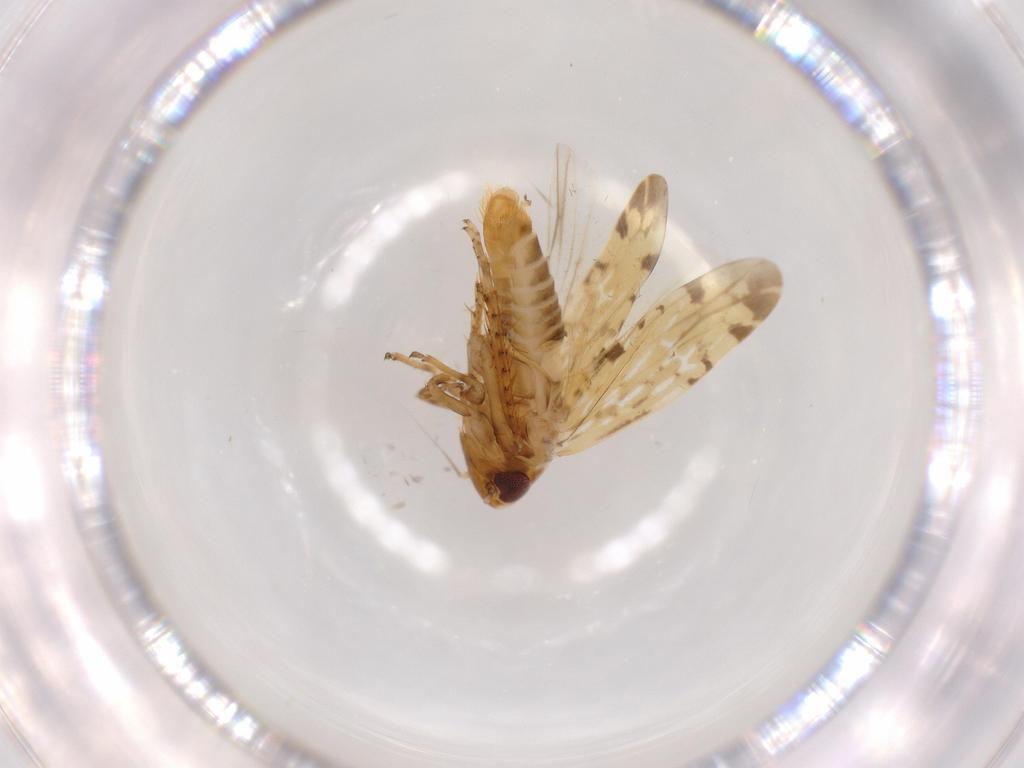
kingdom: Animalia
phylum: Arthropoda
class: Insecta
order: Hemiptera
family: Cicadellidae
